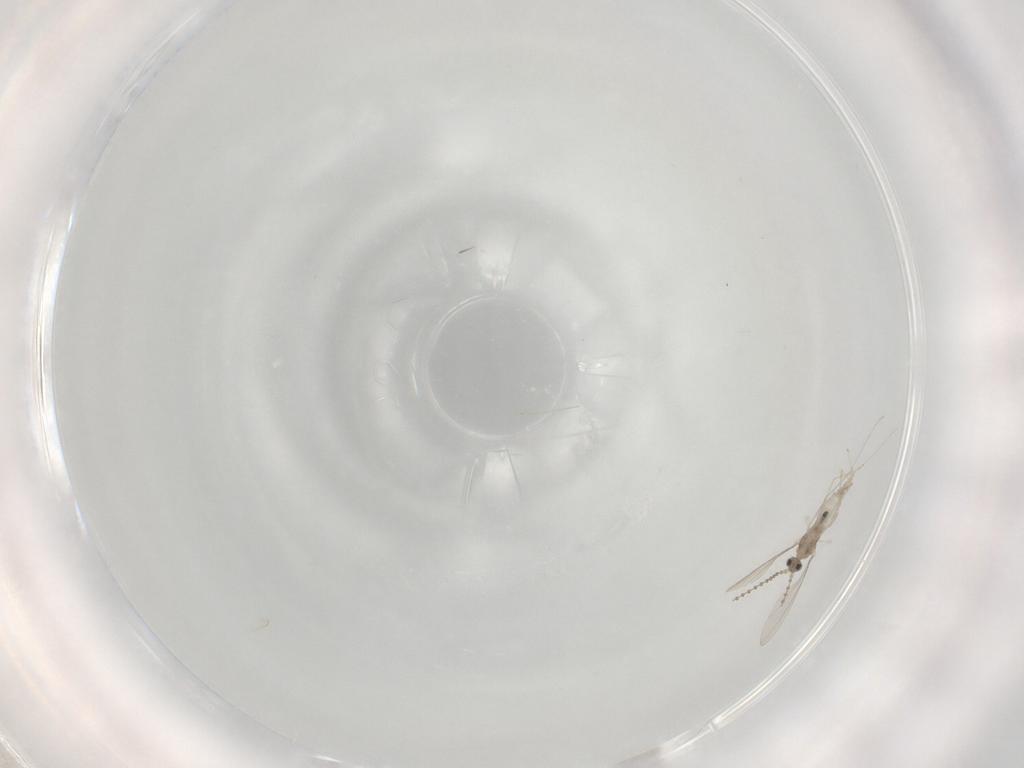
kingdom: Animalia
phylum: Arthropoda
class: Insecta
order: Diptera
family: Cecidomyiidae
